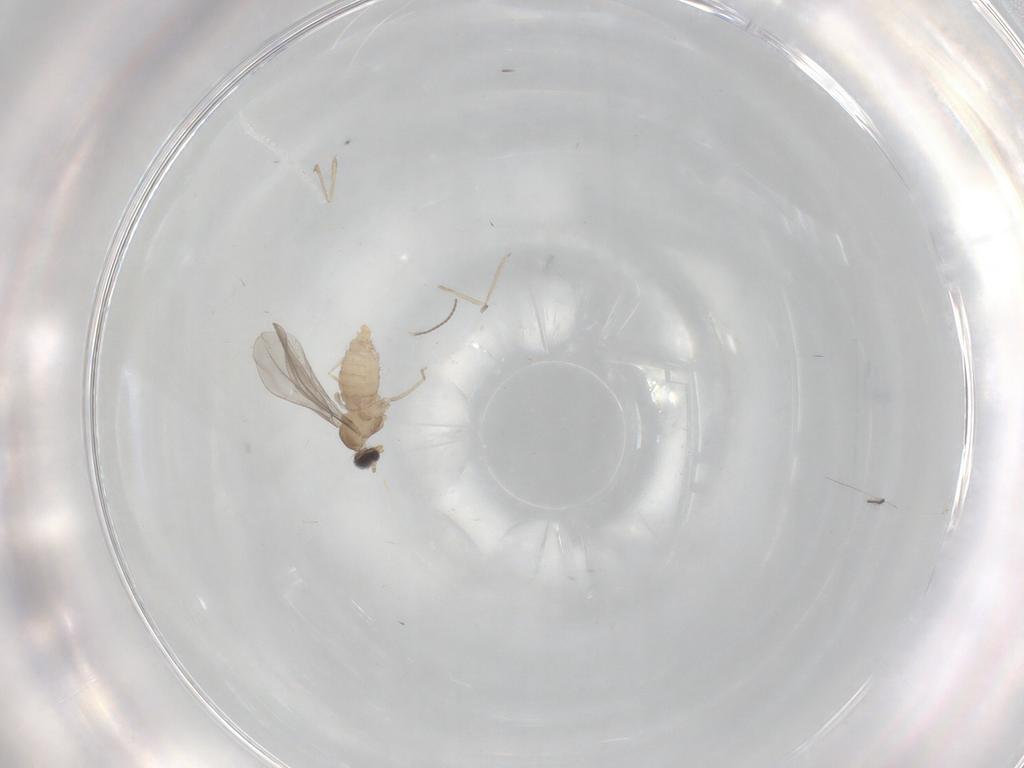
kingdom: Animalia
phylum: Arthropoda
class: Insecta
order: Diptera
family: Cecidomyiidae
